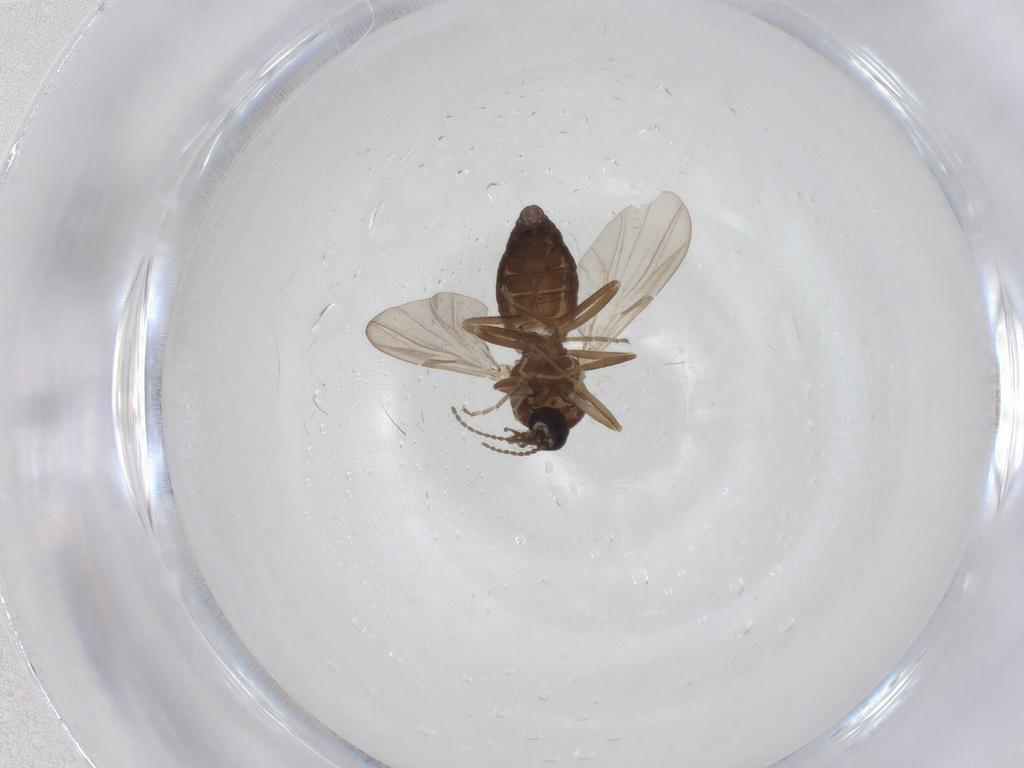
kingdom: Animalia
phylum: Arthropoda
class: Insecta
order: Diptera
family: Ceratopogonidae
